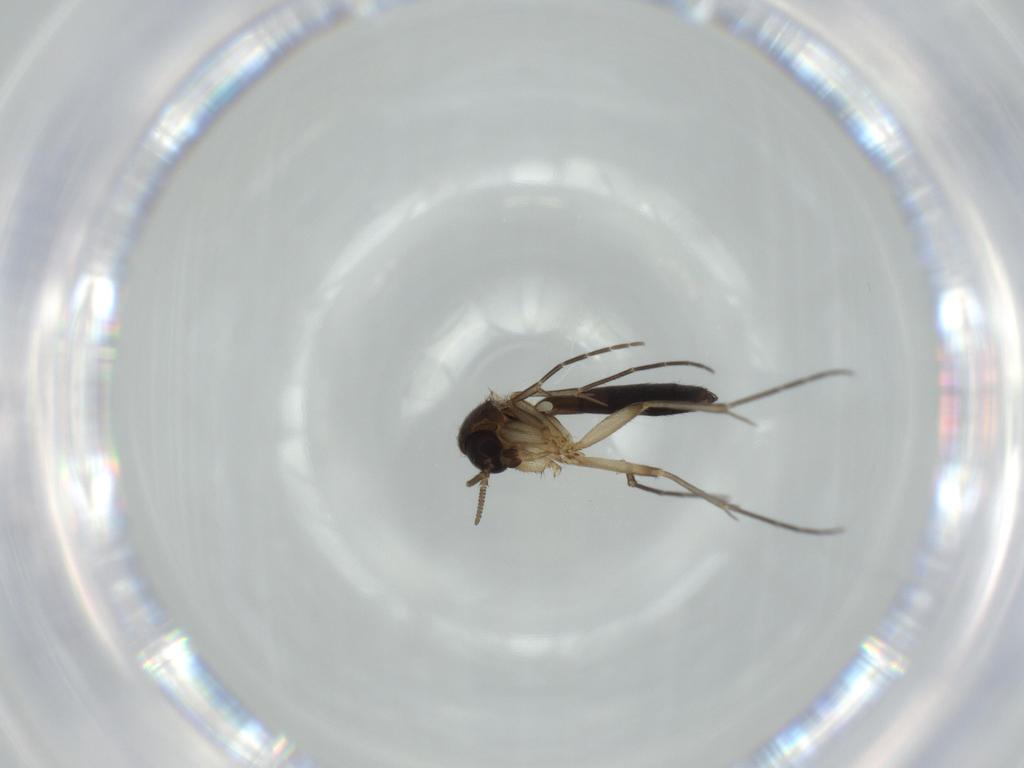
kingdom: Animalia
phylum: Arthropoda
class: Insecta
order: Diptera
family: Mycetophilidae
